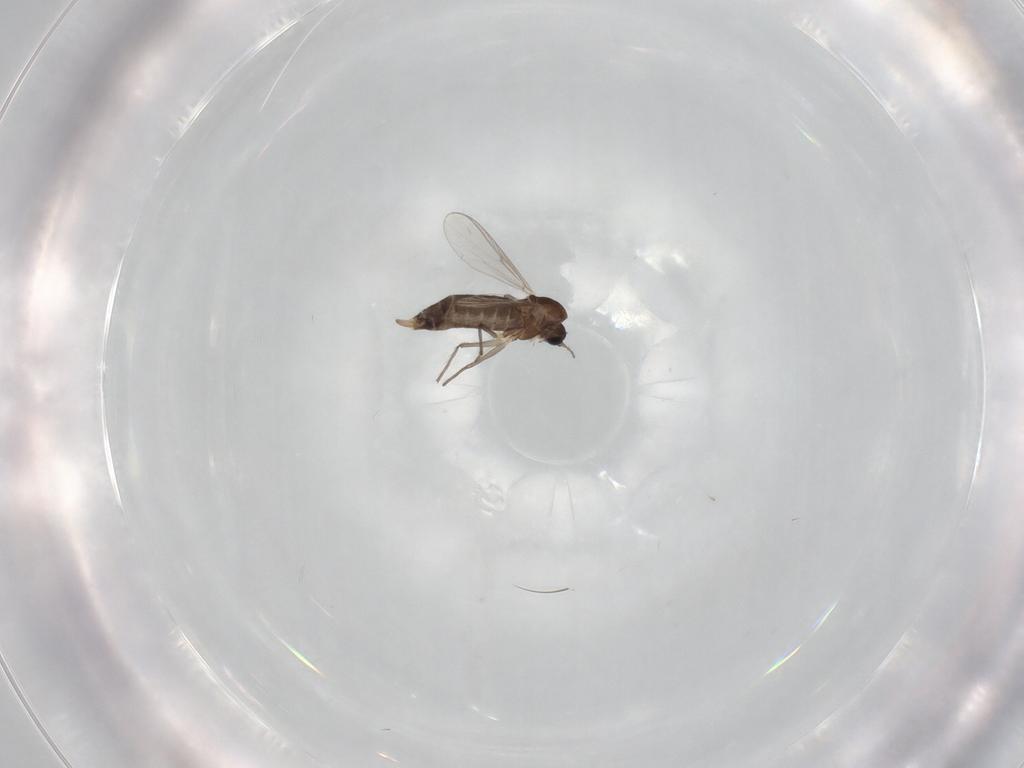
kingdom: Animalia
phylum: Arthropoda
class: Insecta
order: Diptera
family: Chironomidae
